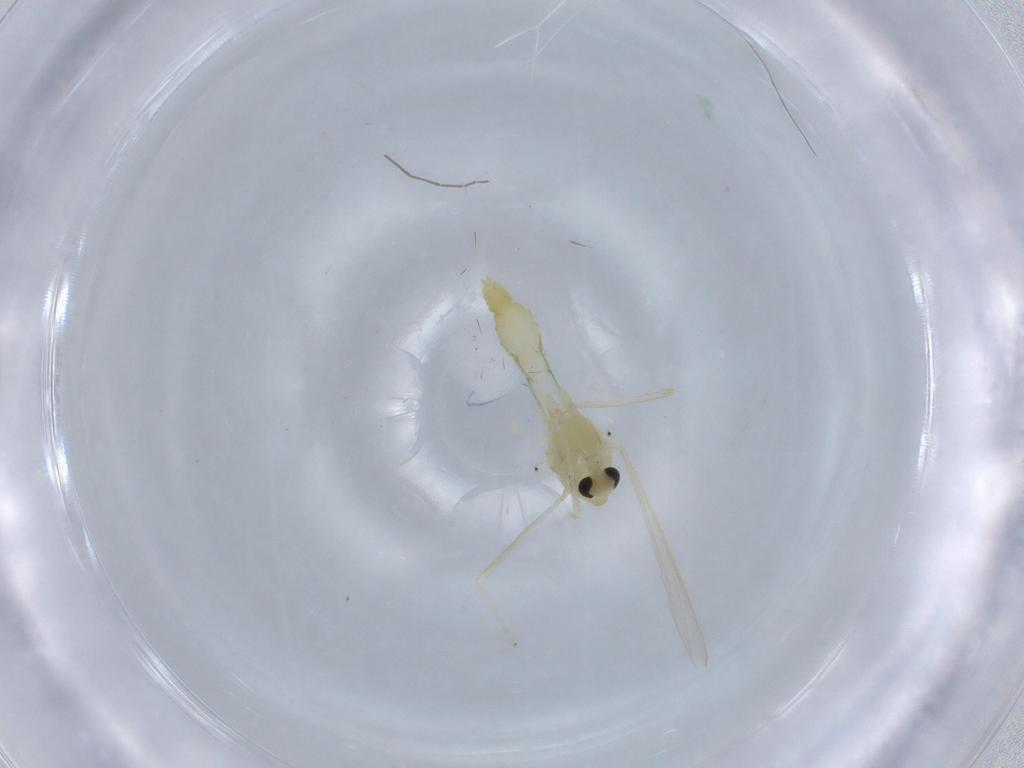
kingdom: Animalia
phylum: Arthropoda
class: Insecta
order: Diptera
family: Chironomidae
